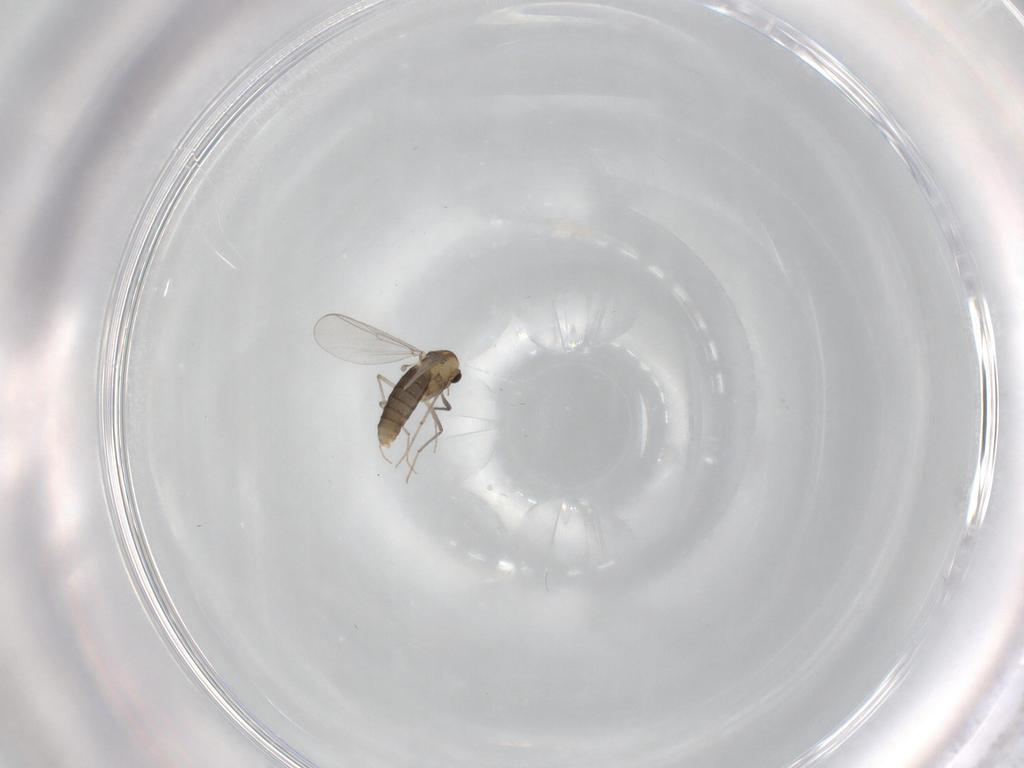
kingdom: Animalia
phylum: Arthropoda
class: Insecta
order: Diptera
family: Chironomidae
